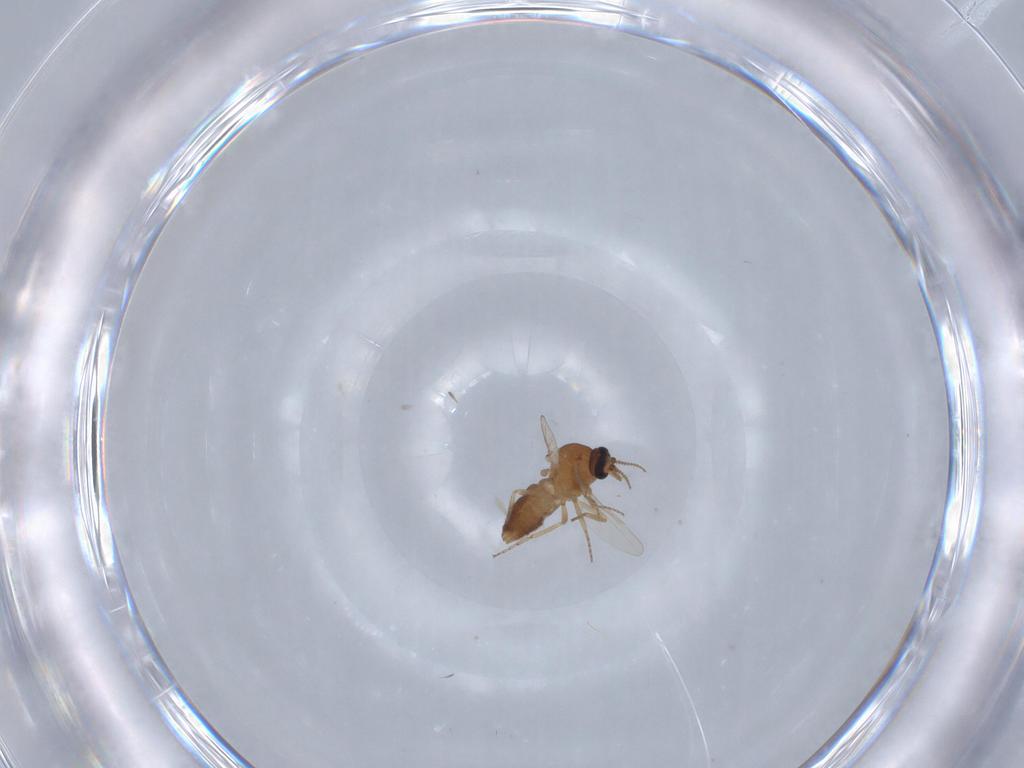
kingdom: Animalia
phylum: Arthropoda
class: Insecta
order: Diptera
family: Ceratopogonidae
